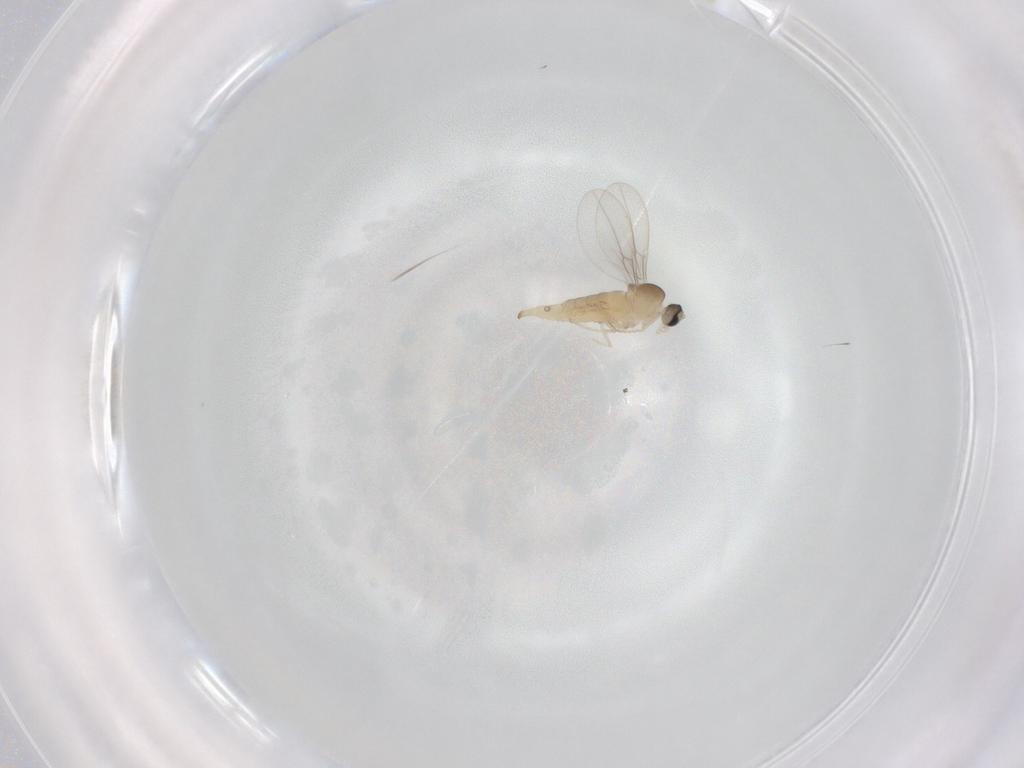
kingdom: Animalia
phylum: Arthropoda
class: Insecta
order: Diptera
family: Cecidomyiidae
